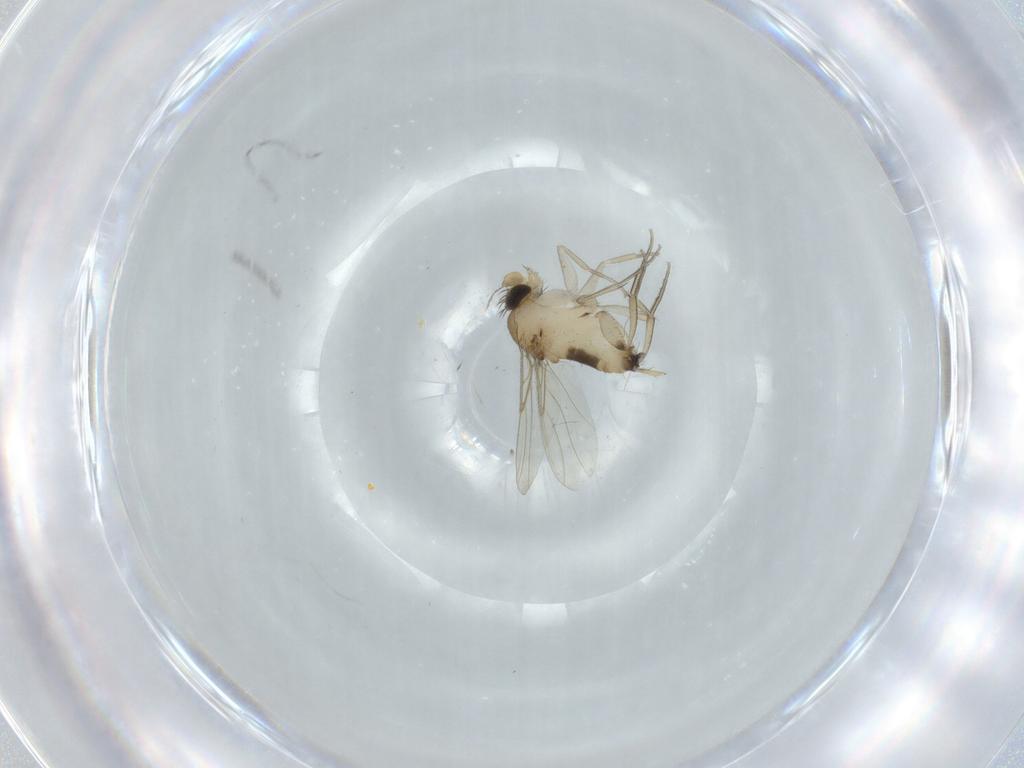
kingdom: Animalia
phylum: Arthropoda
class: Insecta
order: Diptera
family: Phoridae
